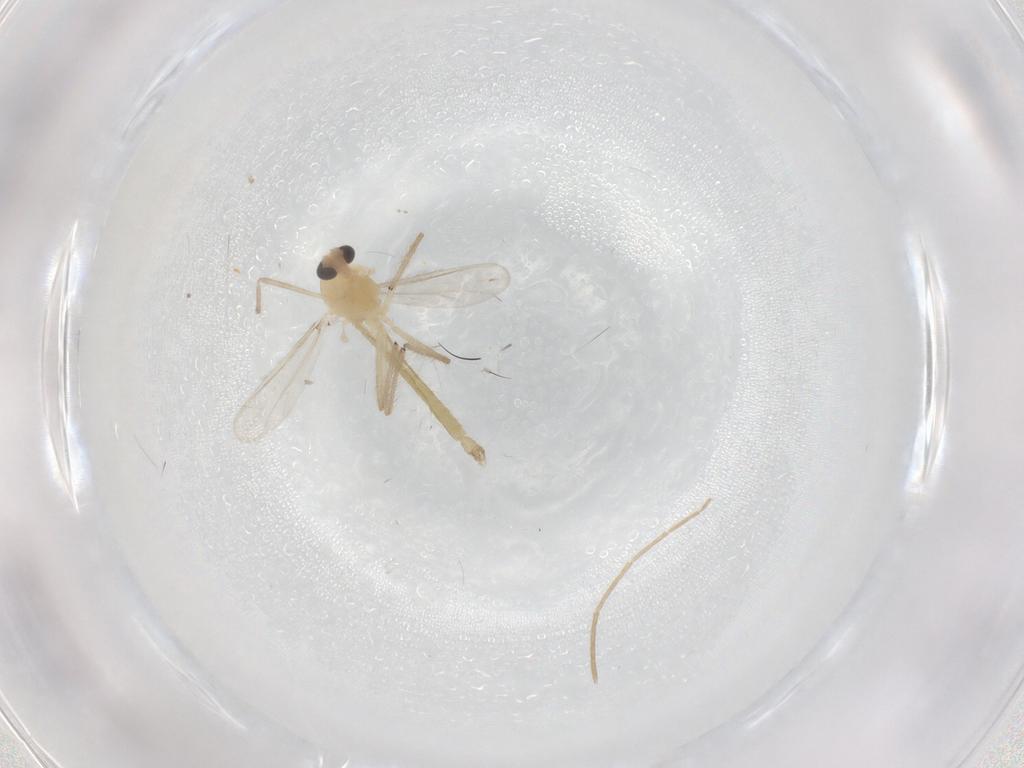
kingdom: Animalia
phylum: Arthropoda
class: Insecta
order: Diptera
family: Chironomidae
